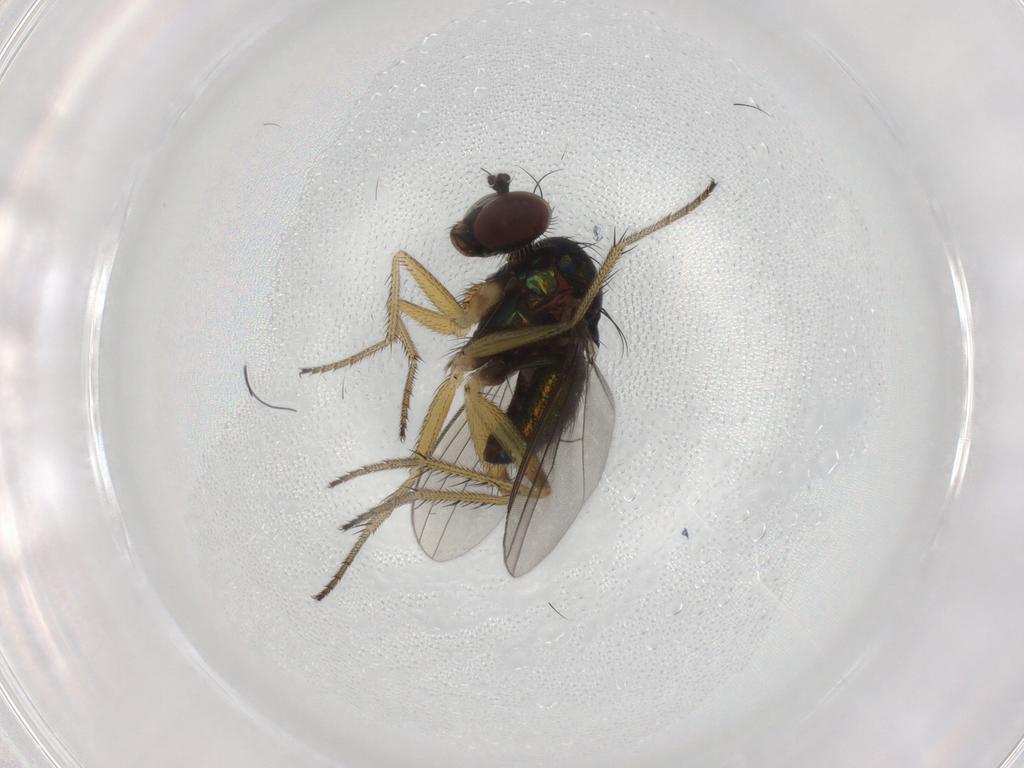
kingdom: Animalia
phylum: Arthropoda
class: Insecta
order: Diptera
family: Dolichopodidae
